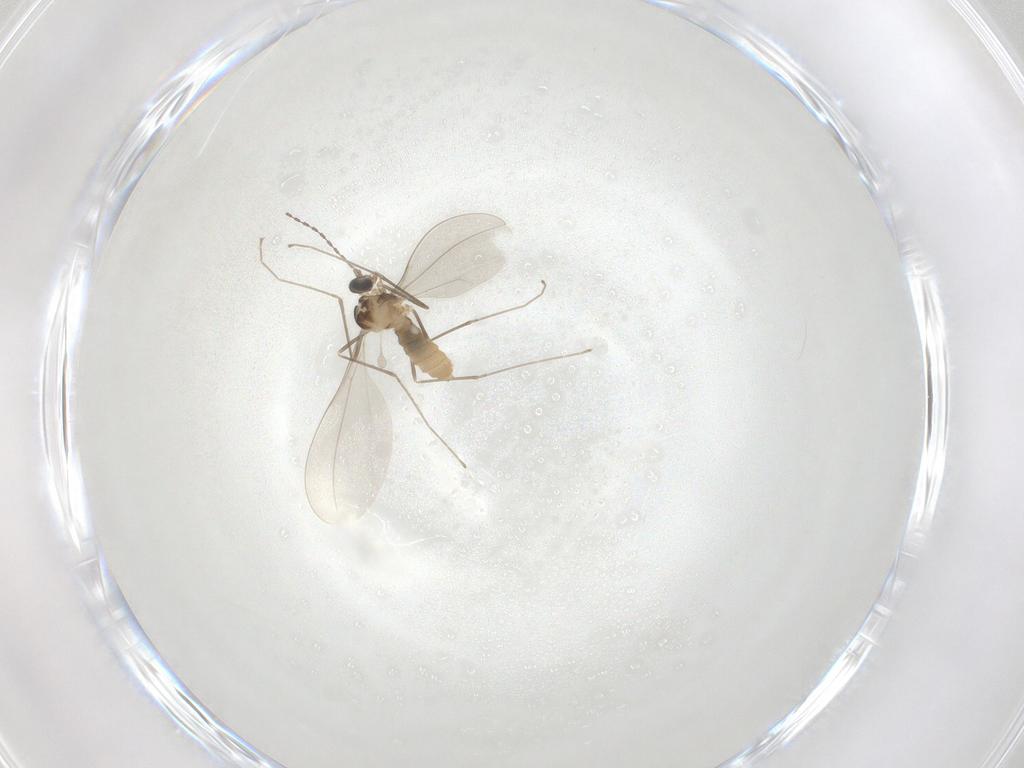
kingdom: Animalia
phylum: Arthropoda
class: Insecta
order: Diptera
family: Cecidomyiidae
